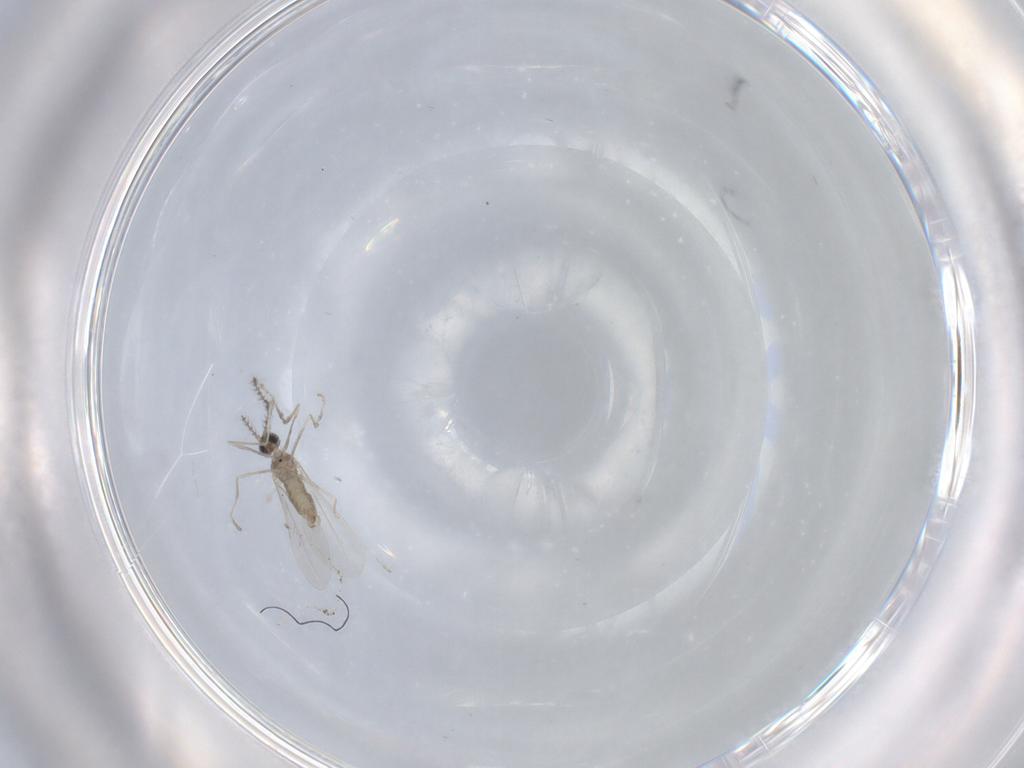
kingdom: Animalia
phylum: Arthropoda
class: Insecta
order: Diptera
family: Cecidomyiidae
